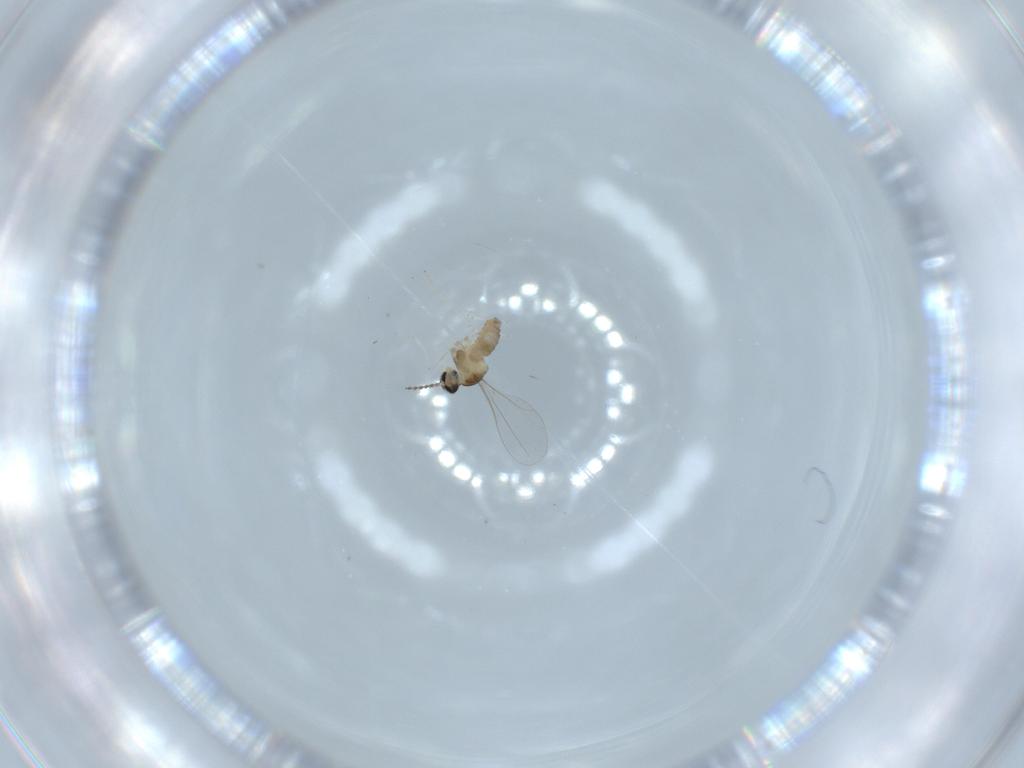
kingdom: Animalia
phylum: Arthropoda
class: Insecta
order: Diptera
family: Cecidomyiidae
